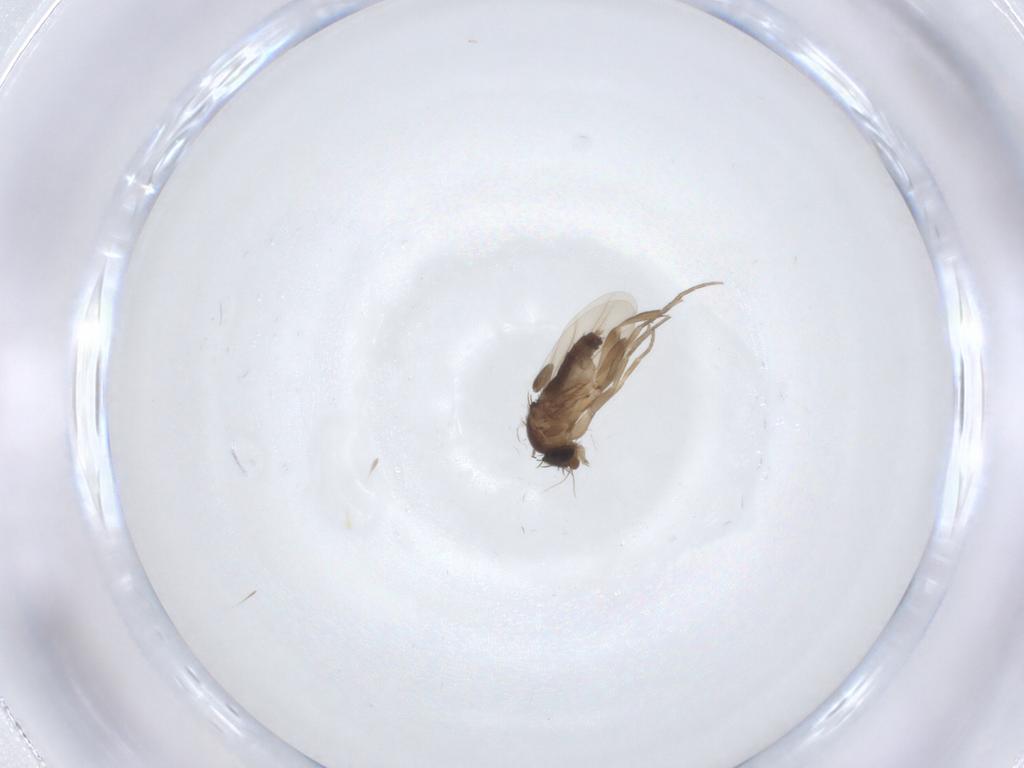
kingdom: Animalia
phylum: Arthropoda
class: Insecta
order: Diptera
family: Phoridae
